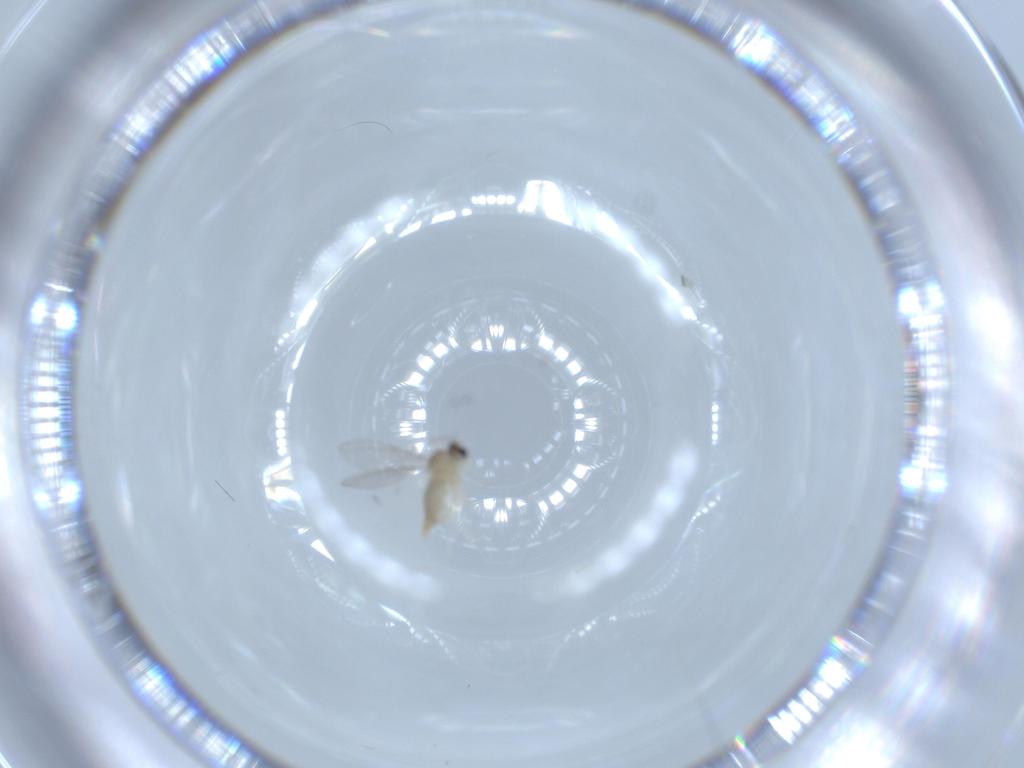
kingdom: Animalia
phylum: Arthropoda
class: Insecta
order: Diptera
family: Cecidomyiidae
